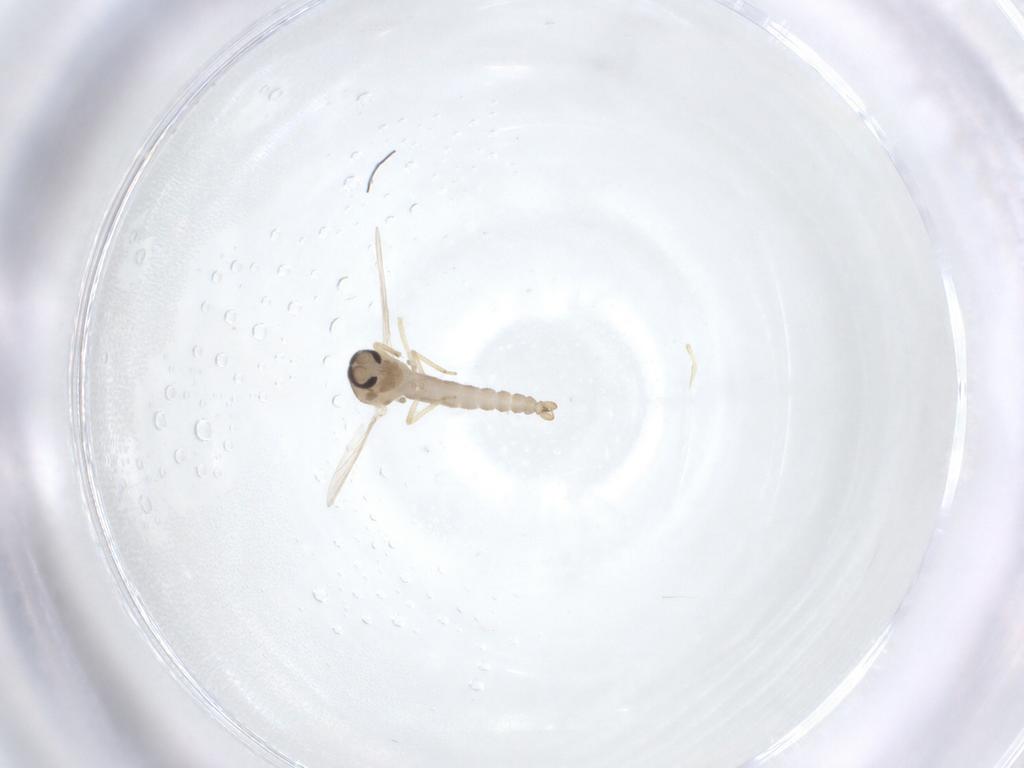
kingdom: Animalia
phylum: Arthropoda
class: Insecta
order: Diptera
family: Ceratopogonidae
